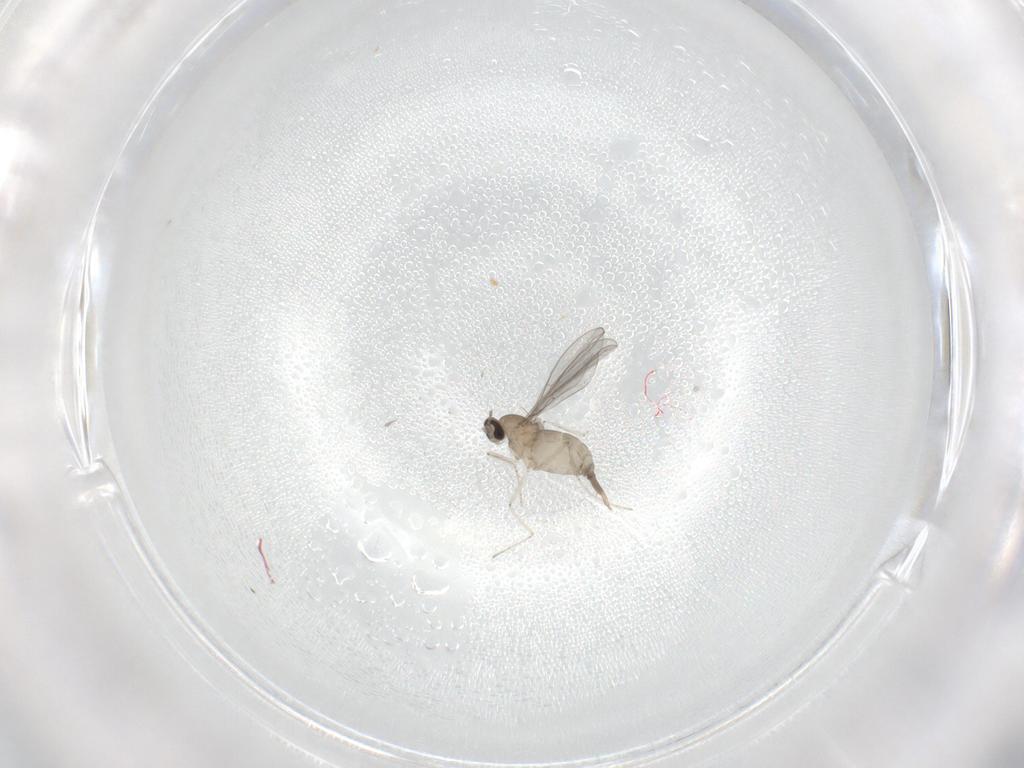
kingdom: Animalia
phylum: Arthropoda
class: Insecta
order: Diptera
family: Cecidomyiidae
